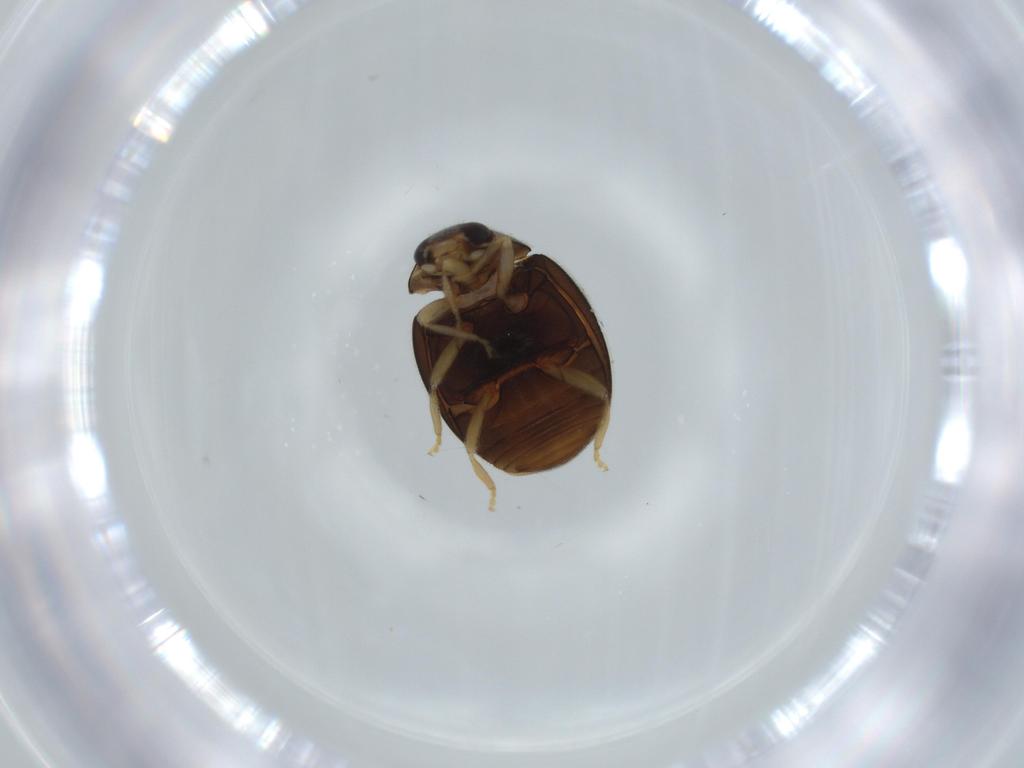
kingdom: Animalia
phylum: Arthropoda
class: Insecta
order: Coleoptera
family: Coccinellidae
